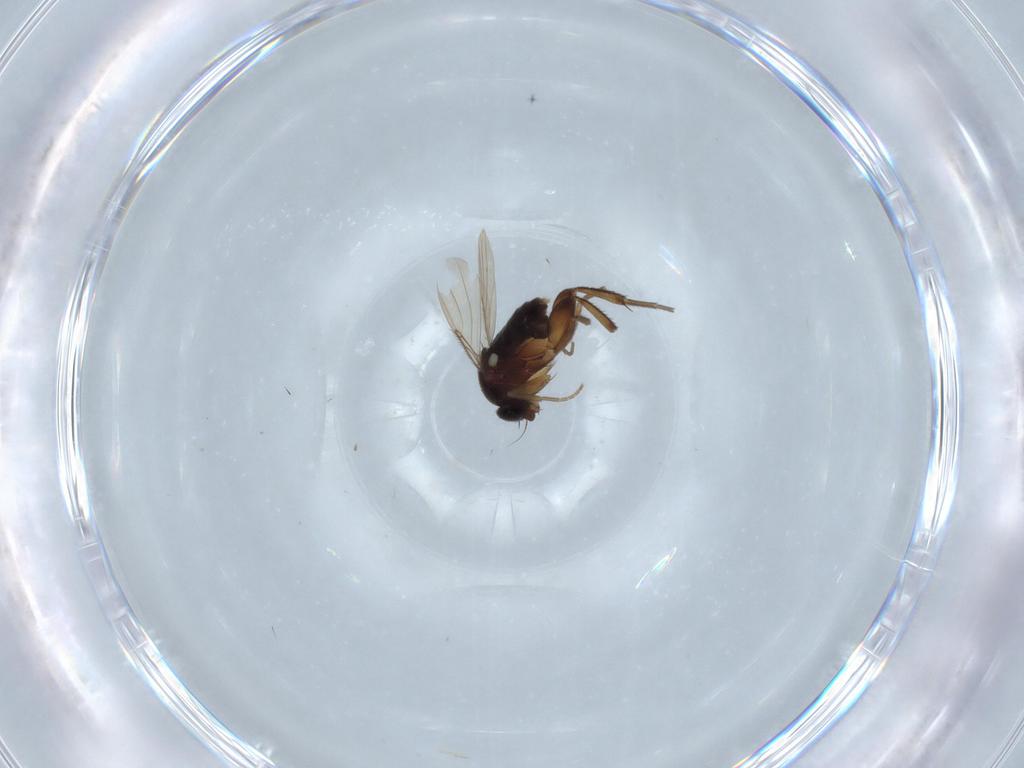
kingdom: Animalia
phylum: Arthropoda
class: Insecta
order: Diptera
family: Phoridae
